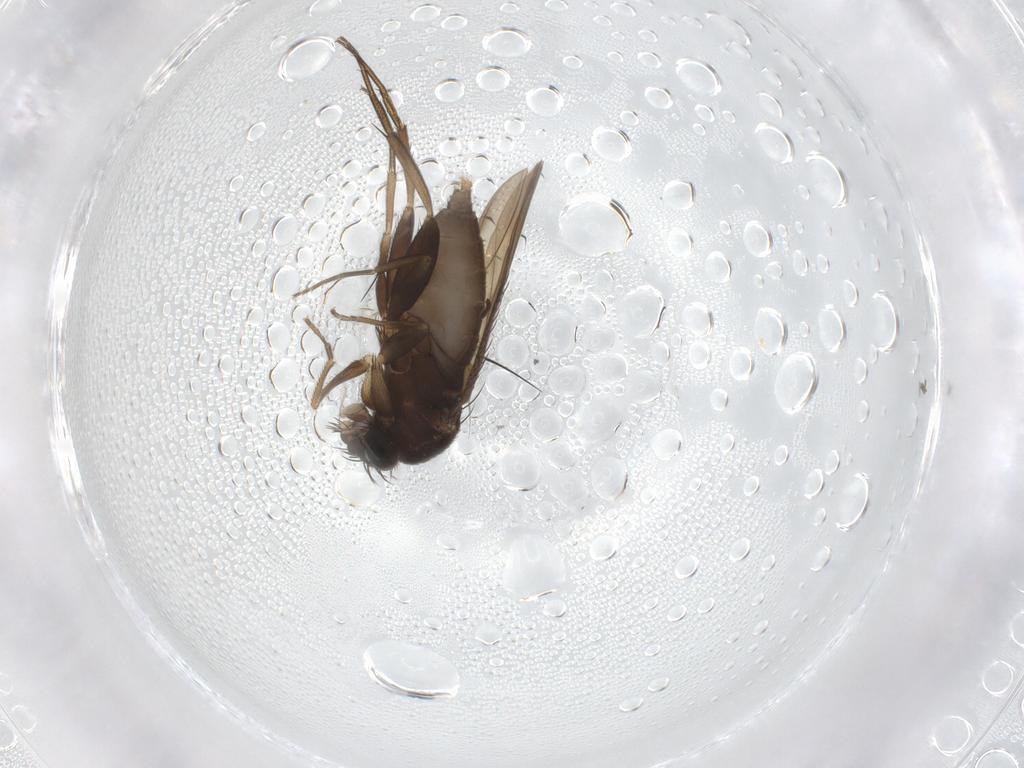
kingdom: Animalia
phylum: Arthropoda
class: Insecta
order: Diptera
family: Phoridae
